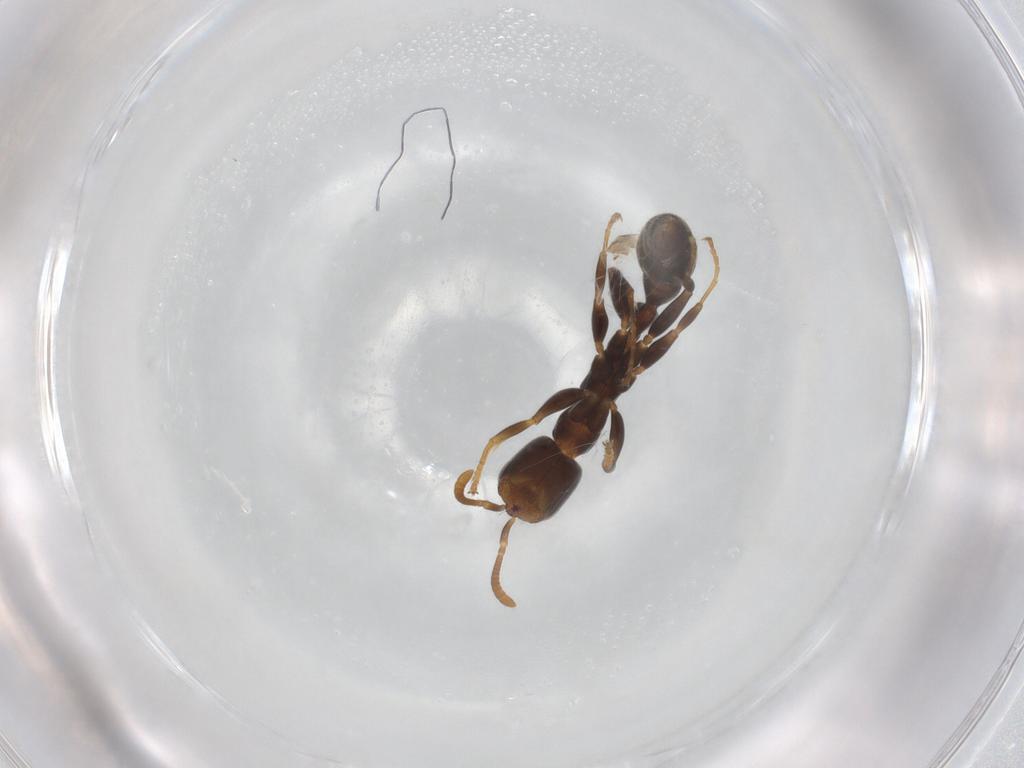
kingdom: Animalia
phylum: Arthropoda
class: Insecta
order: Hymenoptera
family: Formicidae
